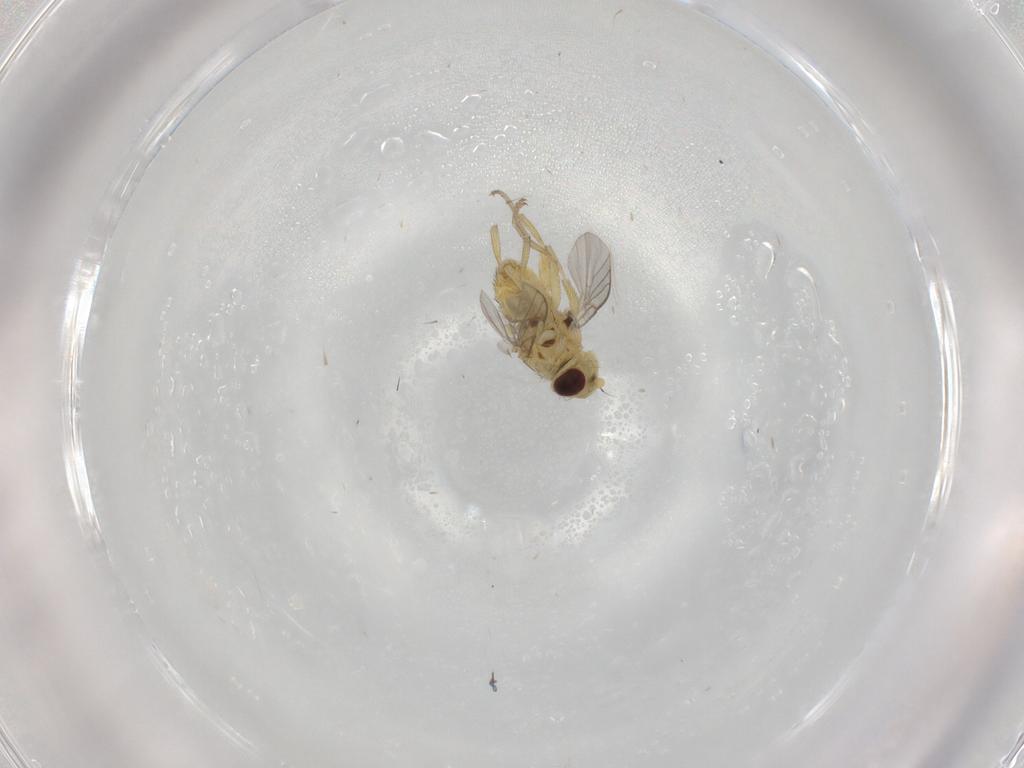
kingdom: Animalia
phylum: Arthropoda
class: Insecta
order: Diptera
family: Agromyzidae
